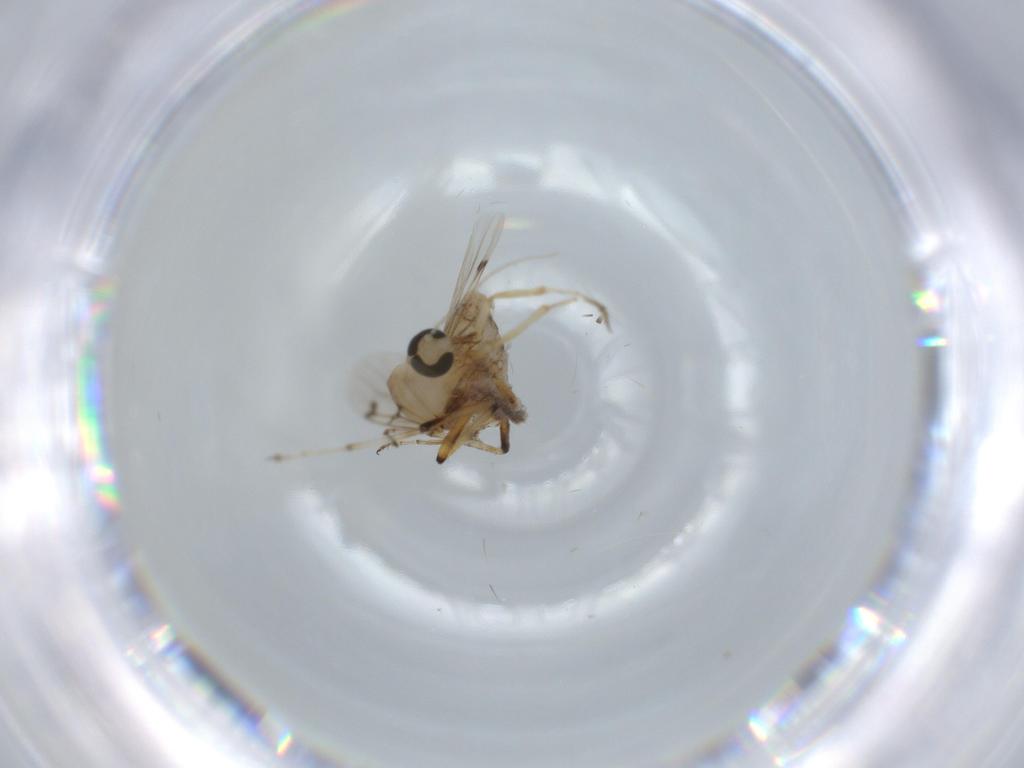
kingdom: Animalia
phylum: Arthropoda
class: Insecta
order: Diptera
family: Ceratopogonidae
